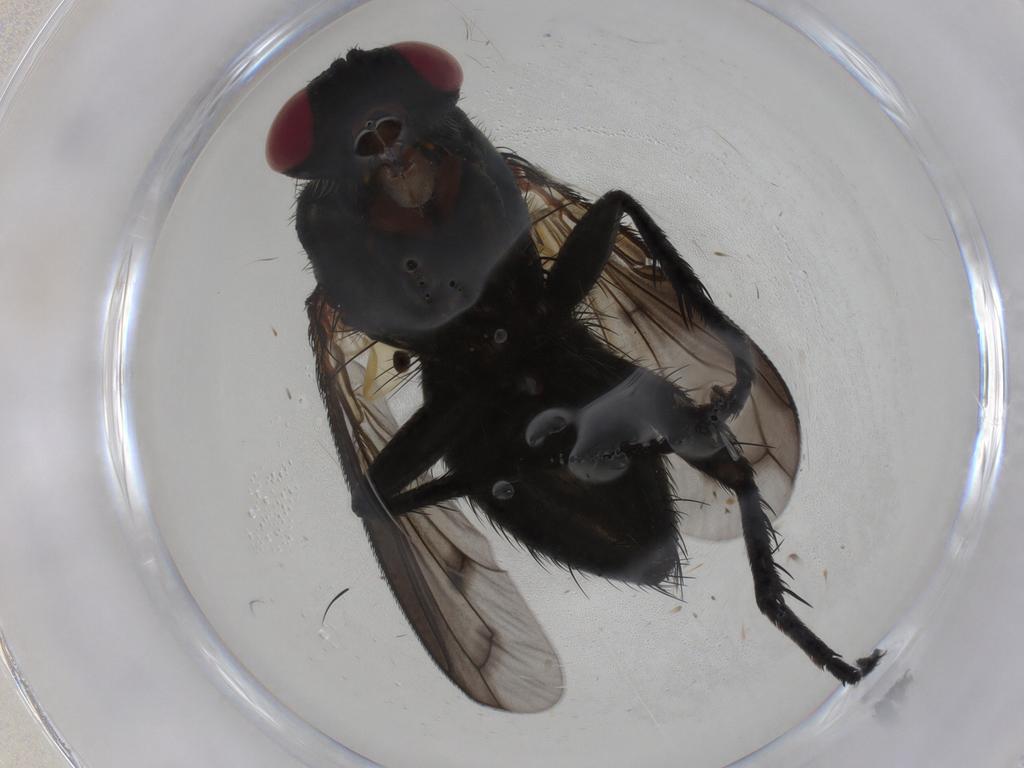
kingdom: Animalia
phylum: Arthropoda
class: Insecta
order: Diptera
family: Tachinidae
